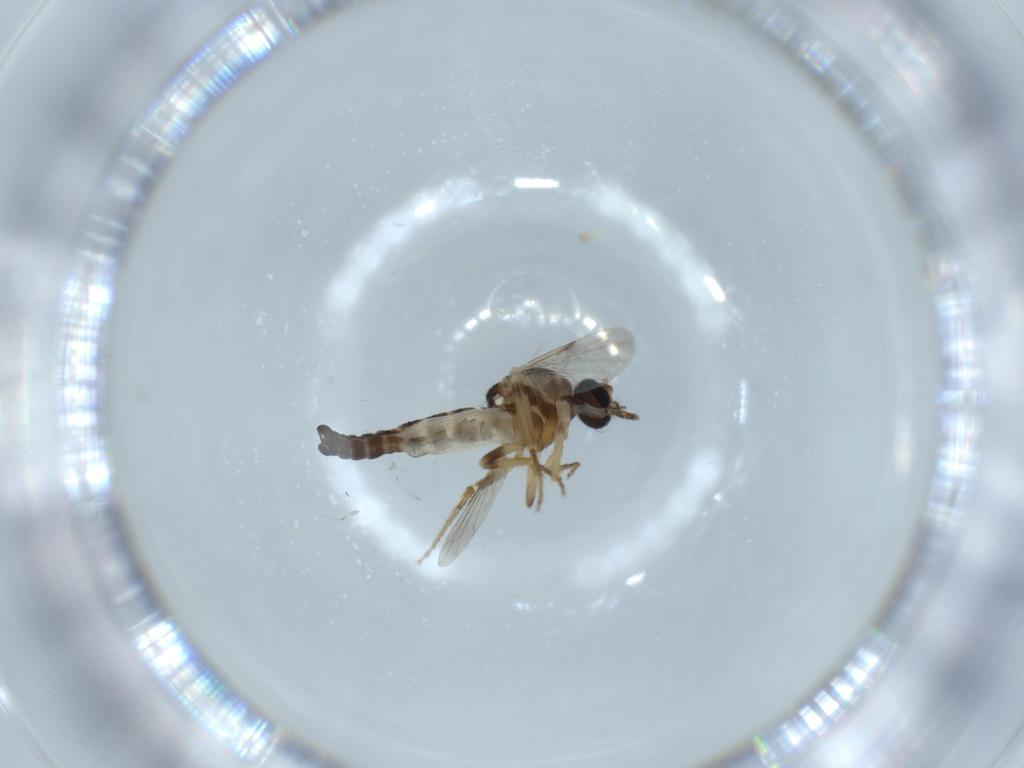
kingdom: Animalia
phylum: Arthropoda
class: Insecta
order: Diptera
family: Ceratopogonidae
